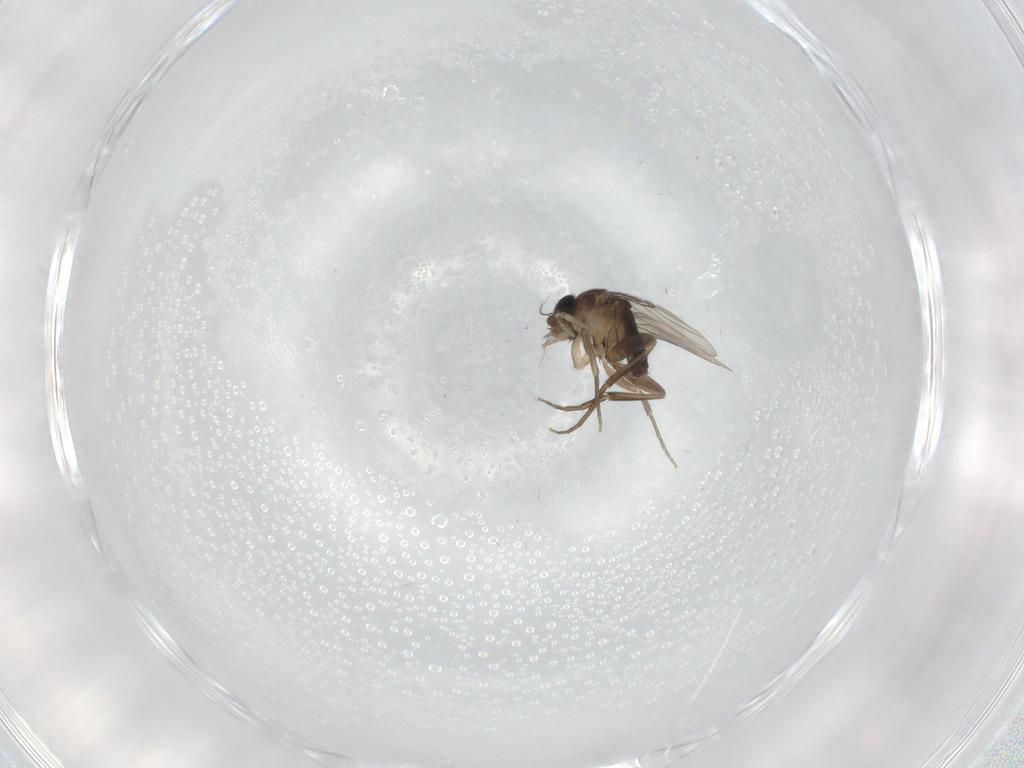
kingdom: Animalia
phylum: Arthropoda
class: Insecta
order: Diptera
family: Phoridae
